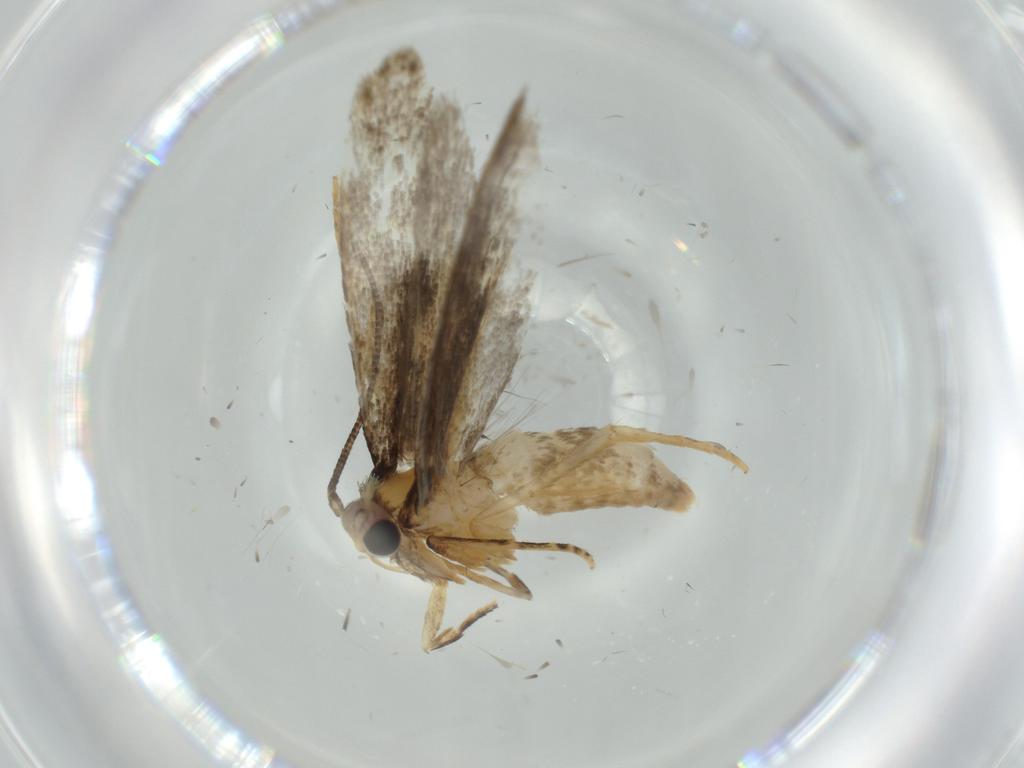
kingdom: Animalia
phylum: Arthropoda
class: Insecta
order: Lepidoptera
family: Tineidae
